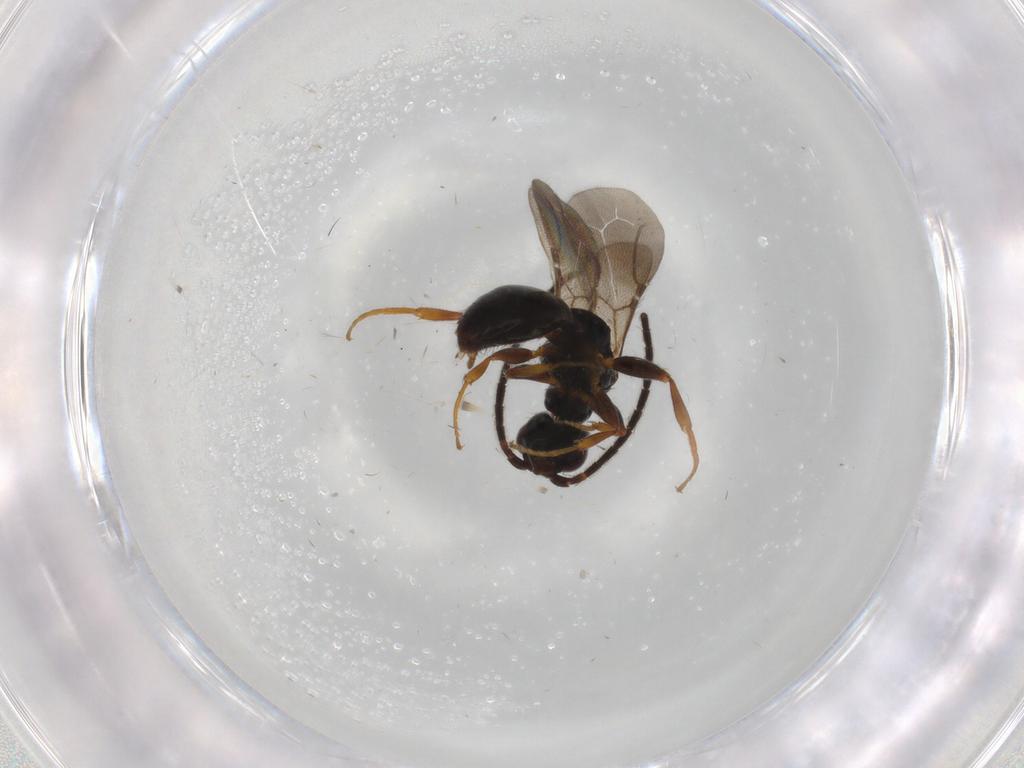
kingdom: Animalia
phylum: Arthropoda
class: Insecta
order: Hymenoptera
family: Bethylidae
